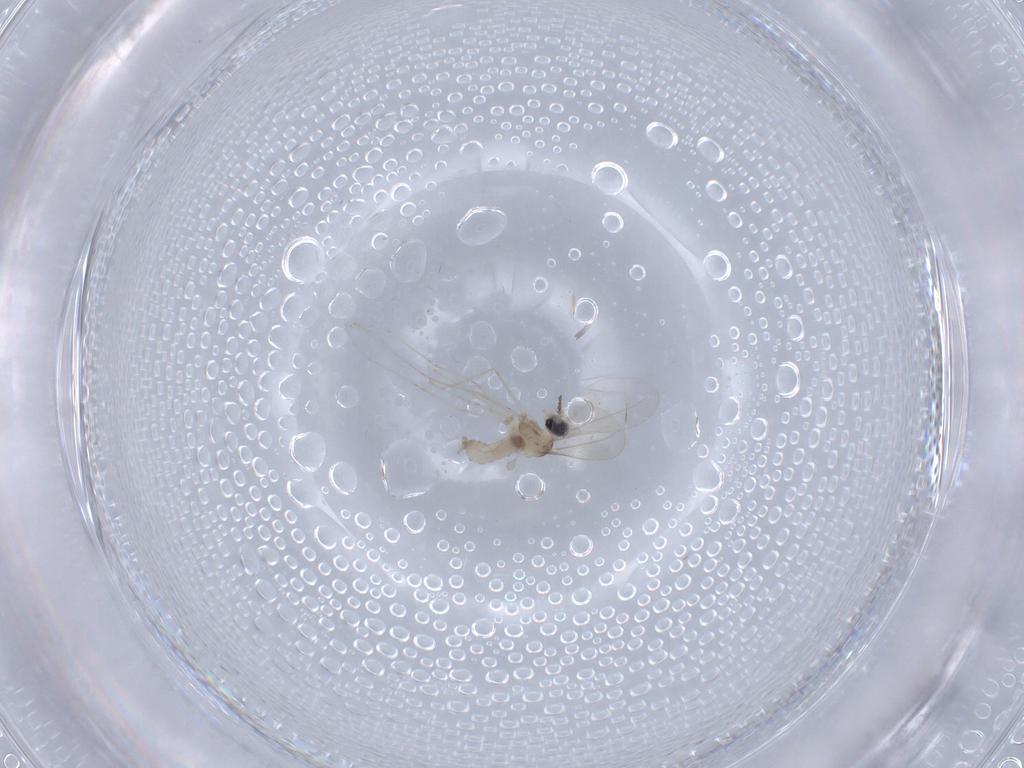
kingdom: Animalia
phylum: Arthropoda
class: Insecta
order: Diptera
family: Cecidomyiidae
